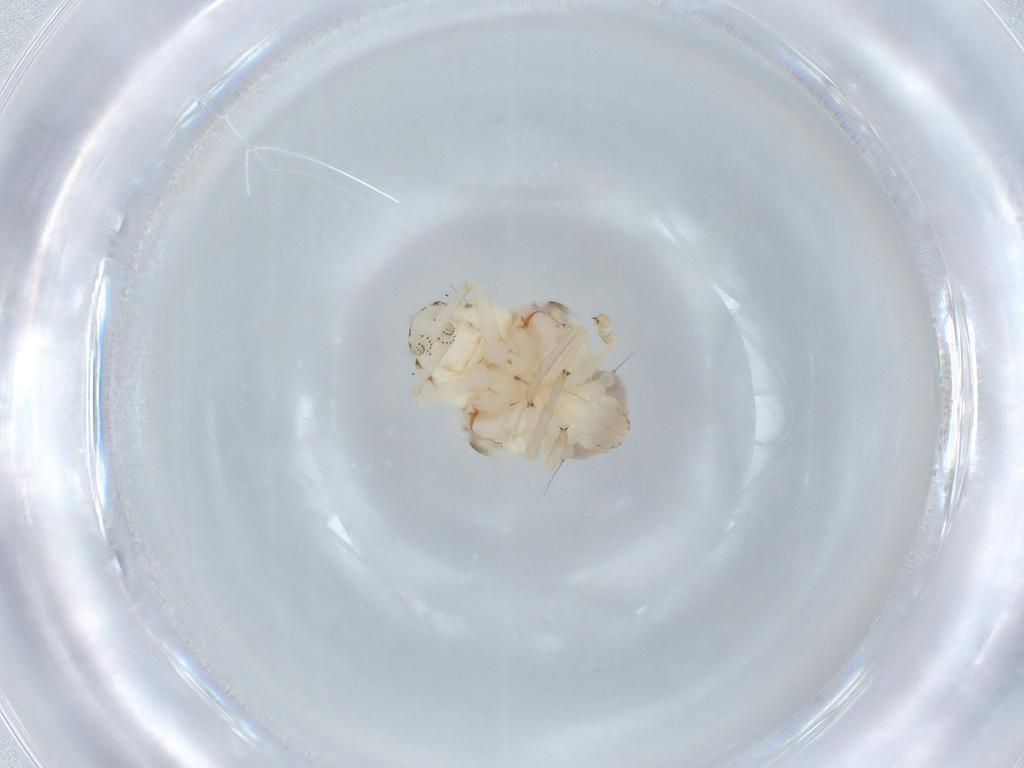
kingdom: Animalia
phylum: Arthropoda
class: Insecta
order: Hemiptera
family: Nogodinidae
